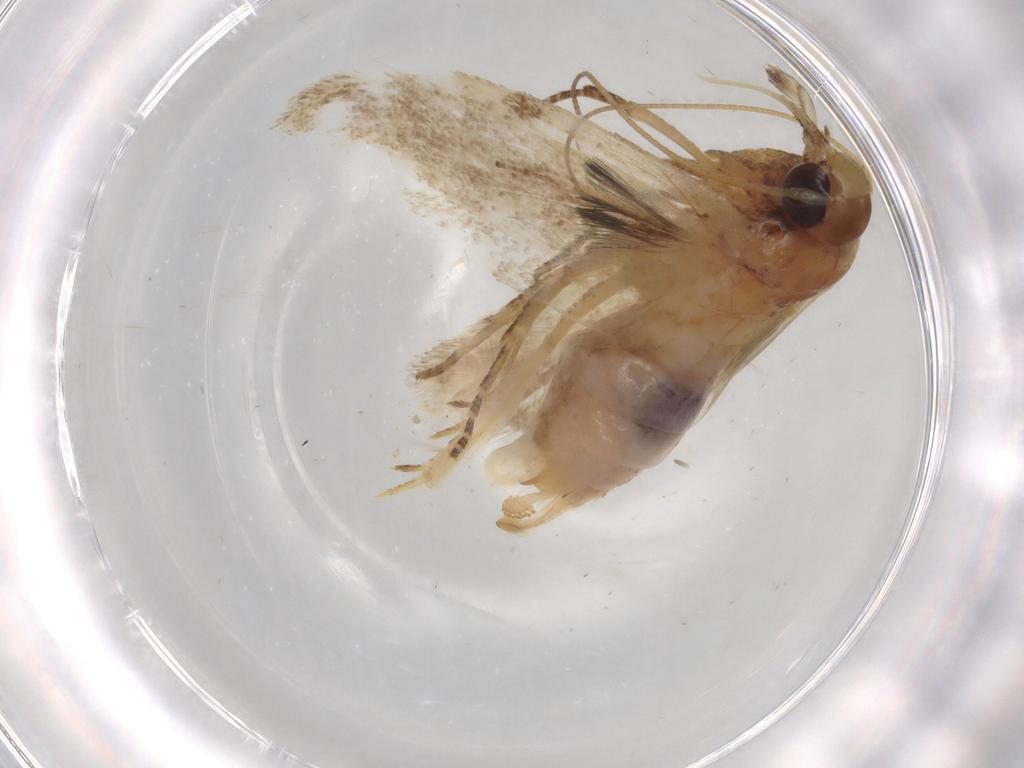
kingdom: Animalia
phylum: Arthropoda
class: Insecta
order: Lepidoptera
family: Gelechiidae
